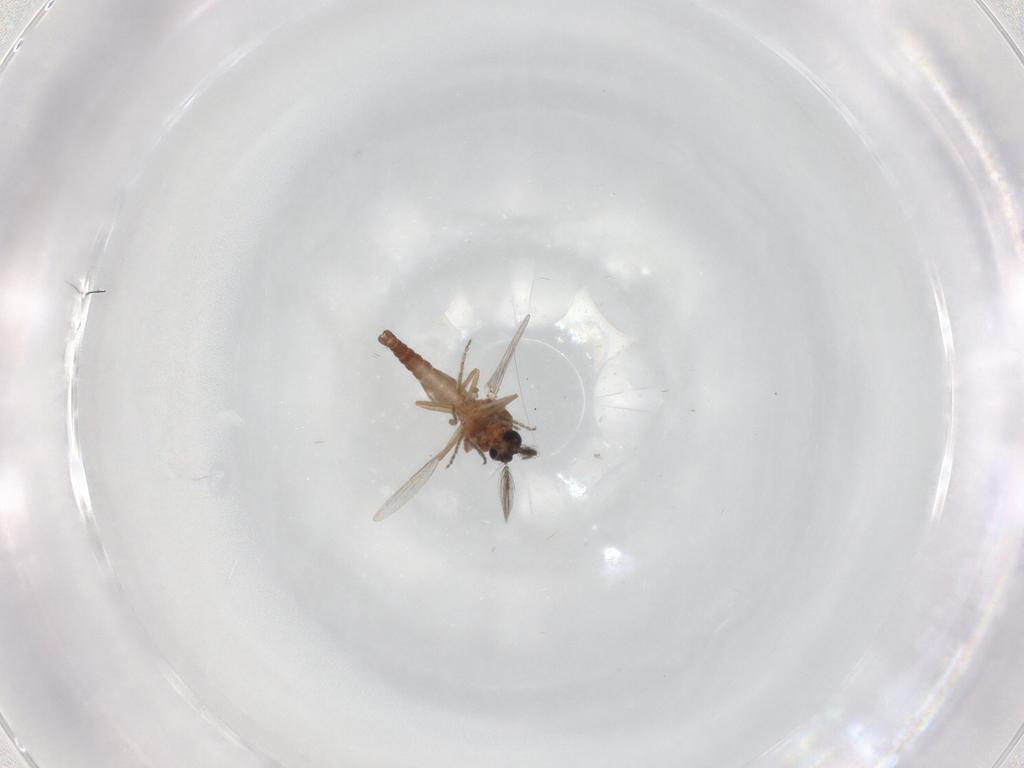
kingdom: Animalia
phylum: Arthropoda
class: Insecta
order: Diptera
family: Ceratopogonidae
